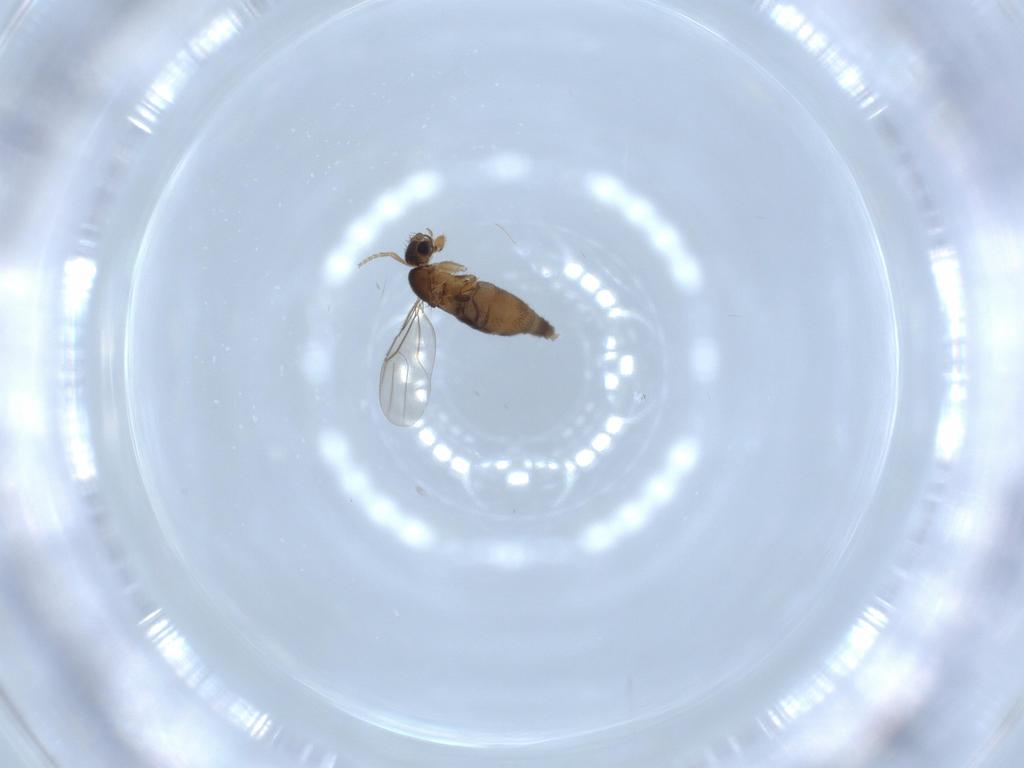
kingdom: Animalia
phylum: Arthropoda
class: Insecta
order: Diptera
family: Phoridae
